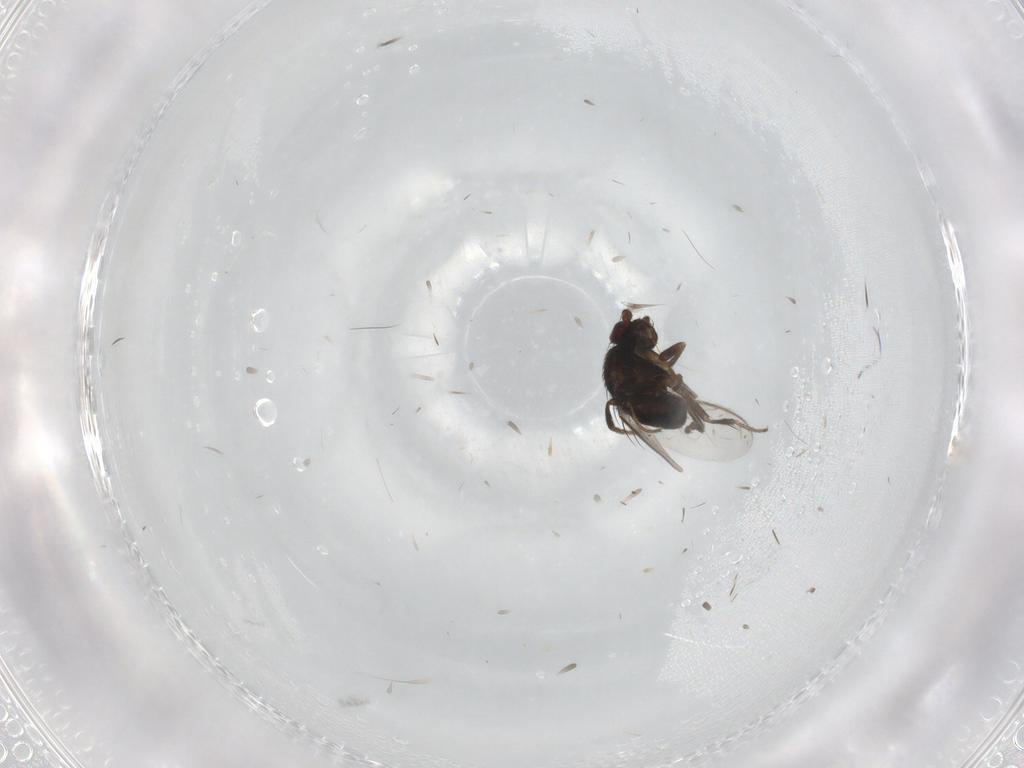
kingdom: Animalia
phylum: Arthropoda
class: Insecta
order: Diptera
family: Sphaeroceridae
